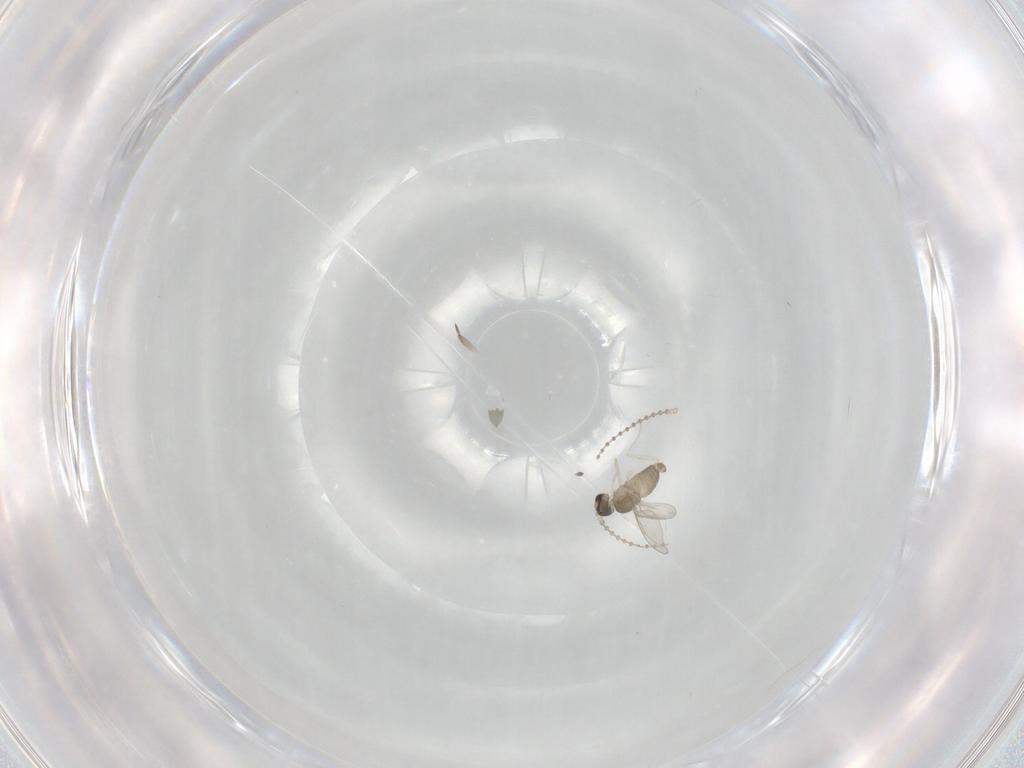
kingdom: Animalia
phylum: Arthropoda
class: Insecta
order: Diptera
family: Cecidomyiidae
